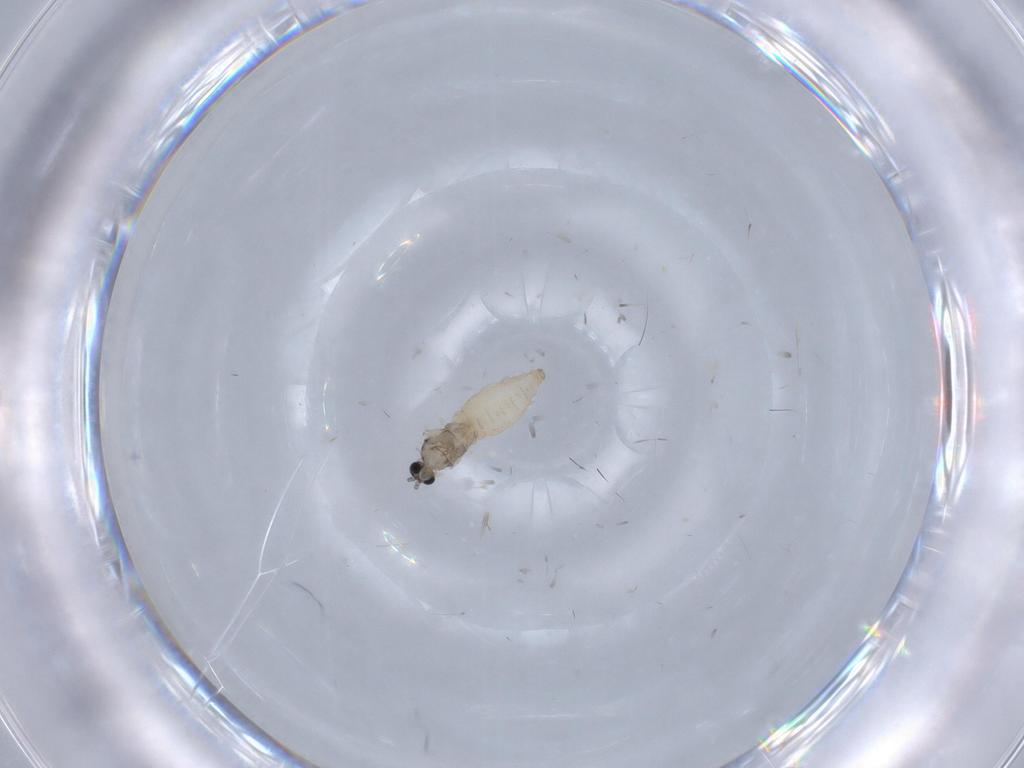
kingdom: Animalia
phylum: Arthropoda
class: Insecta
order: Diptera
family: Cecidomyiidae
